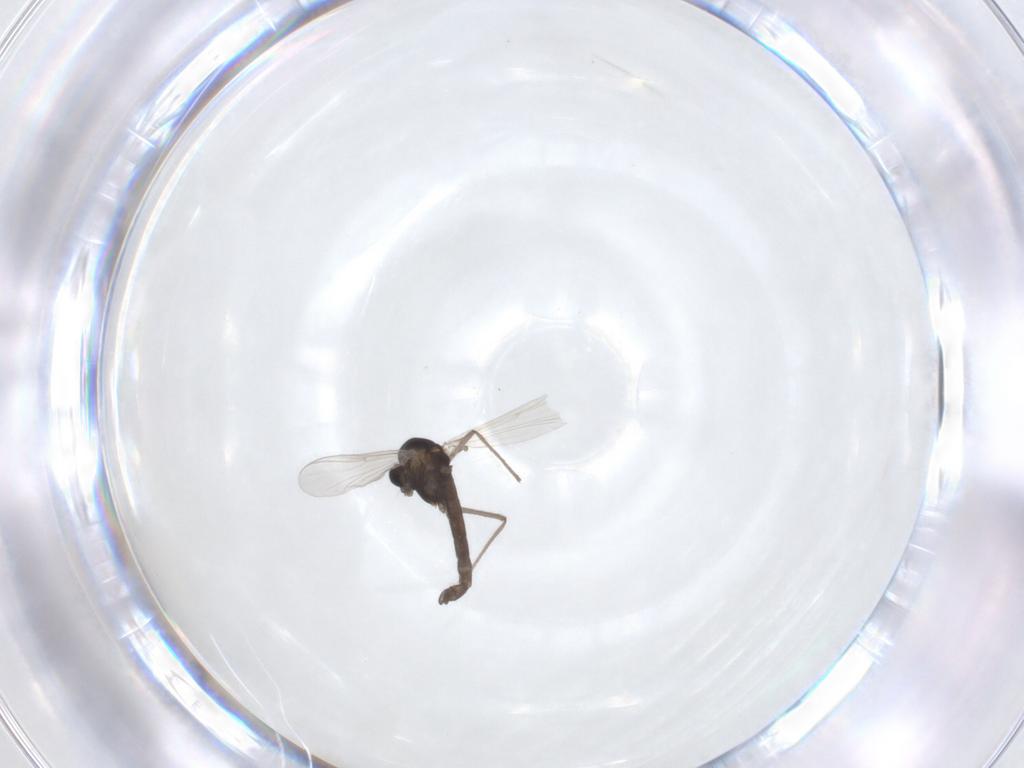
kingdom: Animalia
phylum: Arthropoda
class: Insecta
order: Diptera
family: Chironomidae
